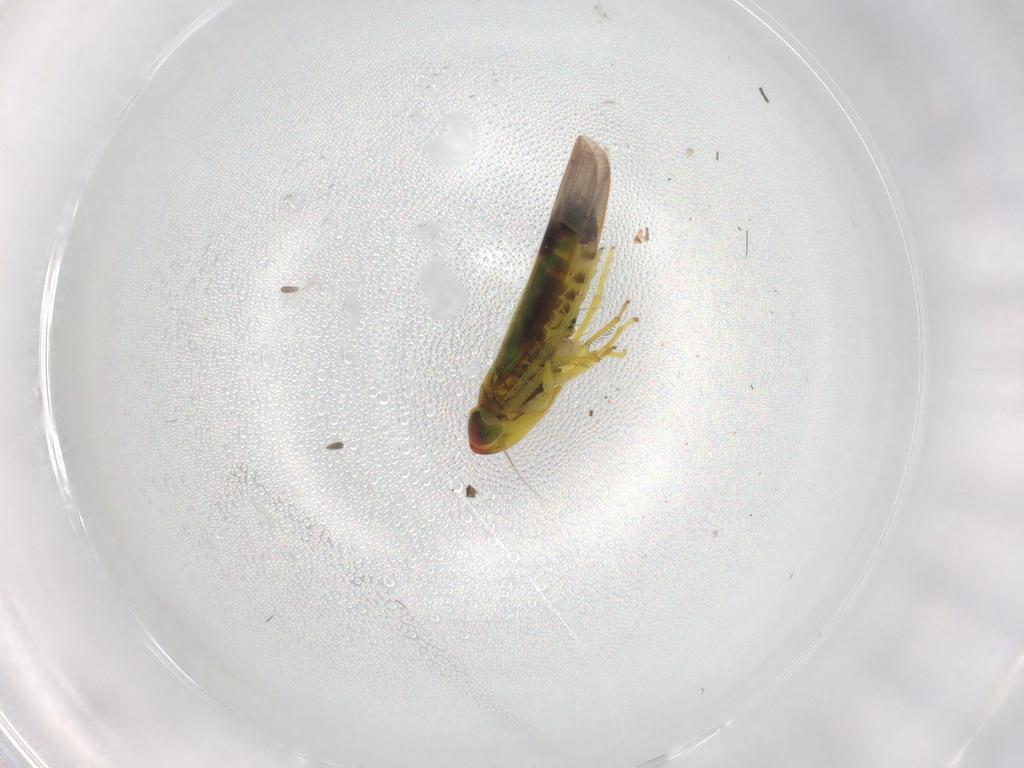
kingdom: Animalia
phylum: Arthropoda
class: Insecta
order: Hemiptera
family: Cicadellidae
